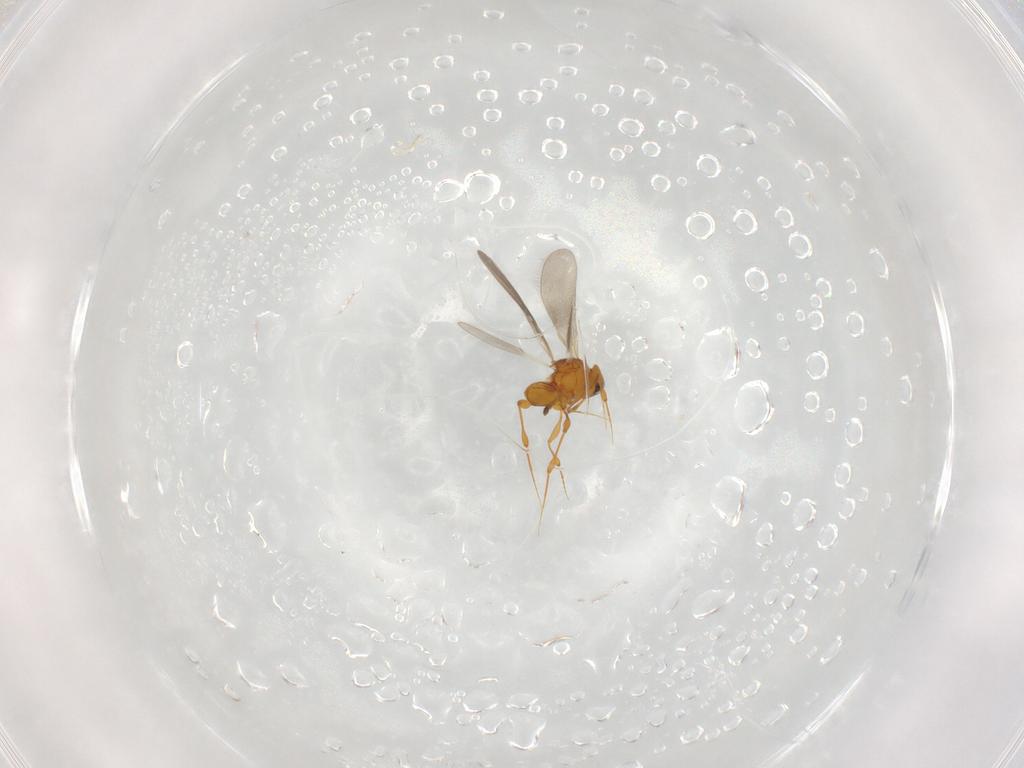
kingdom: Animalia
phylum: Arthropoda
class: Insecta
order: Hymenoptera
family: Platygastridae
